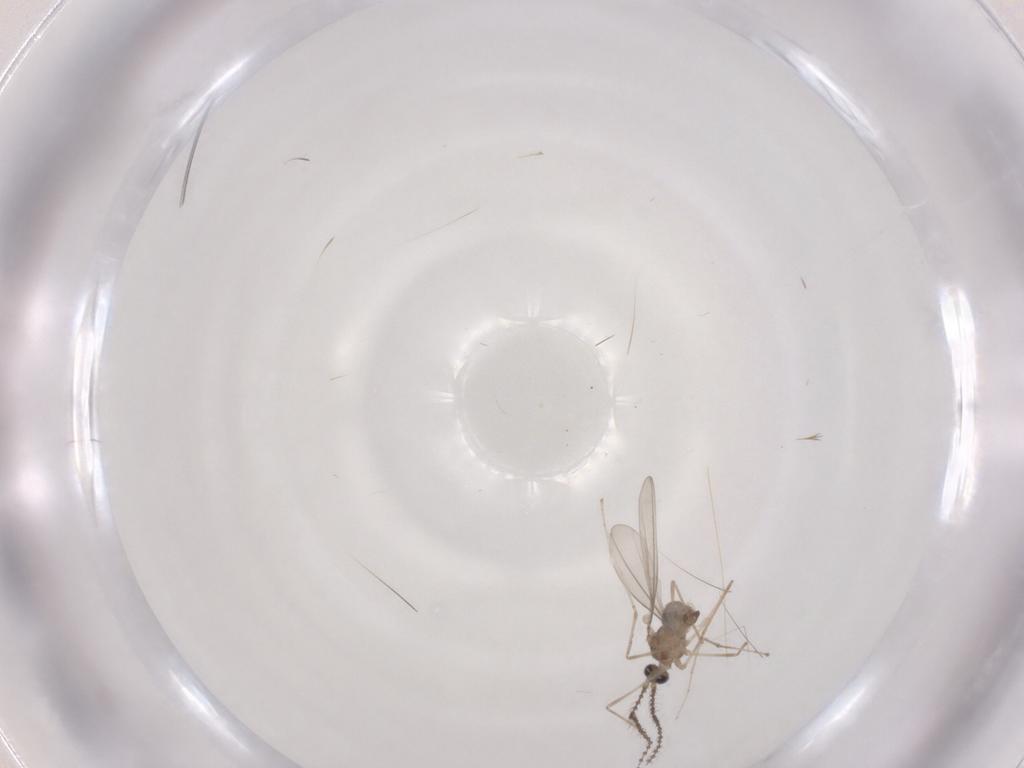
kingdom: Animalia
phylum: Arthropoda
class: Insecta
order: Diptera
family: Cecidomyiidae
